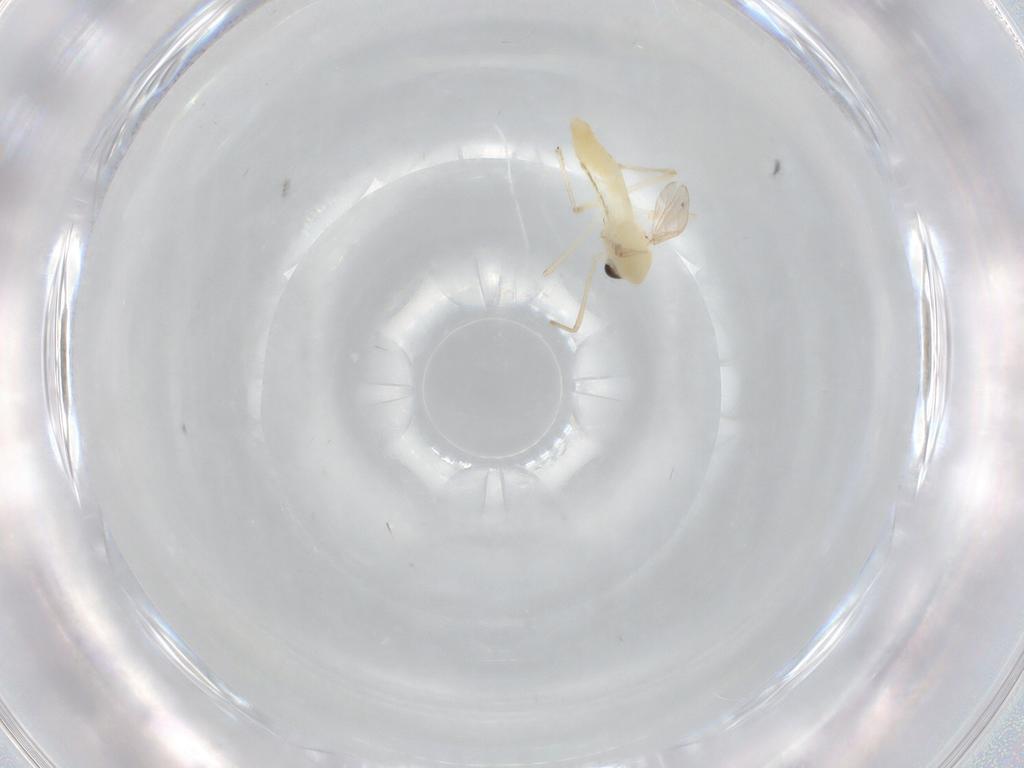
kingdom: Animalia
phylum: Arthropoda
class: Insecta
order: Diptera
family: Chironomidae
